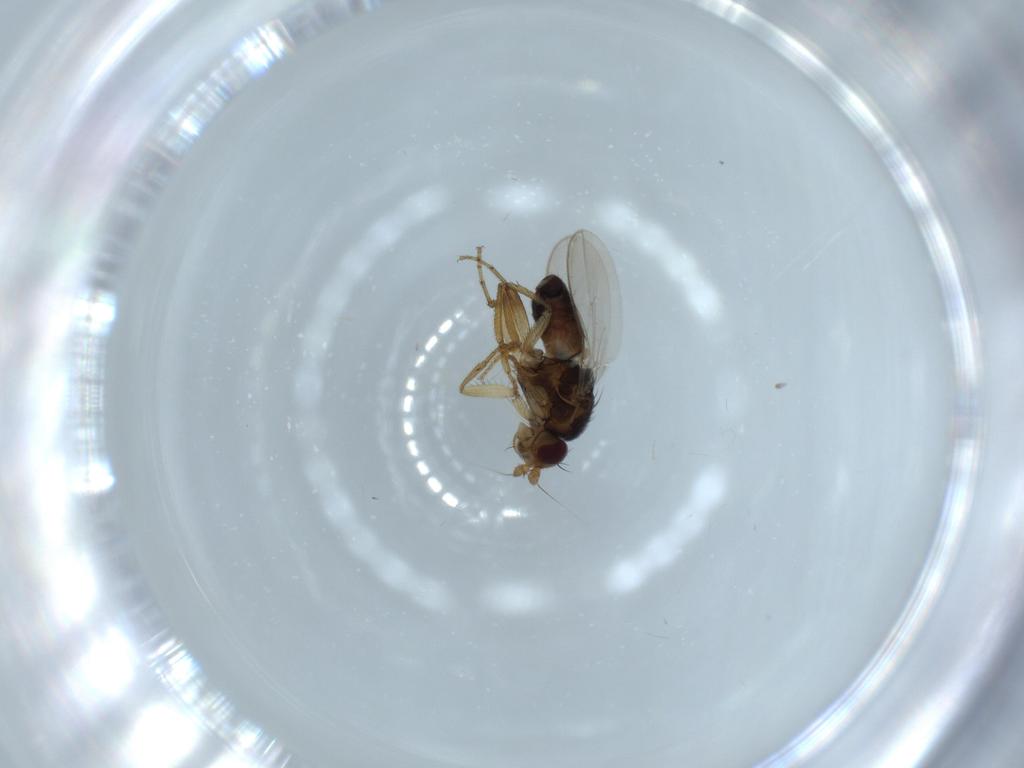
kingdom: Animalia
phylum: Arthropoda
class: Insecta
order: Diptera
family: Sphaeroceridae
